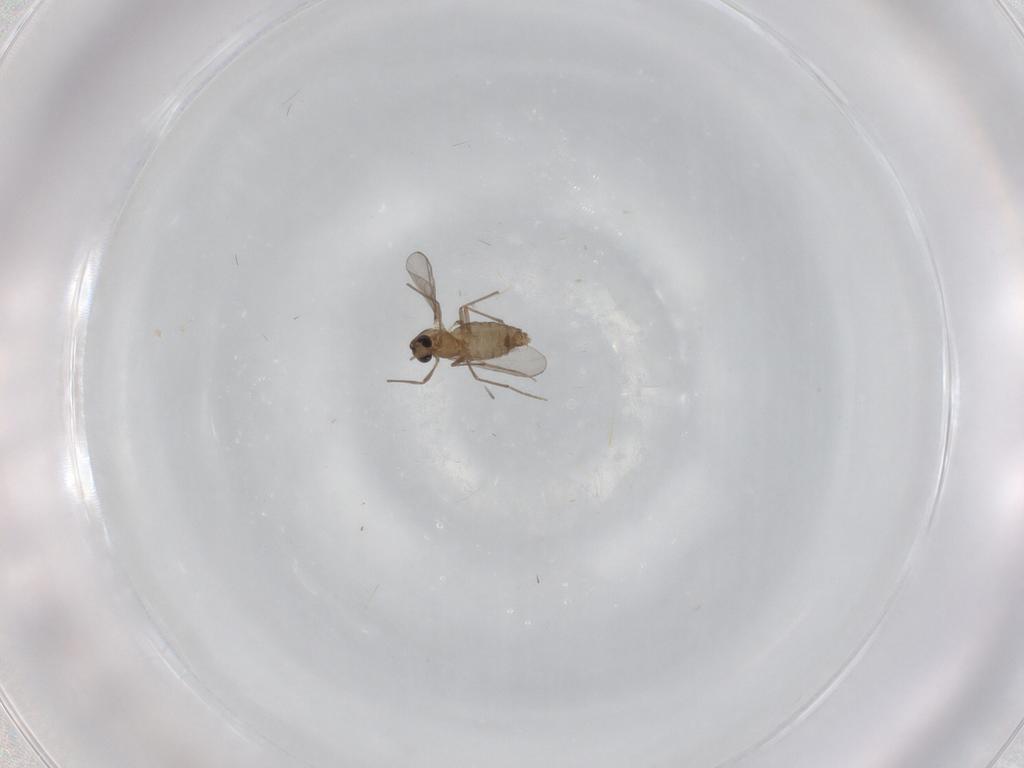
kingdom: Animalia
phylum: Arthropoda
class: Insecta
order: Diptera
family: Chironomidae
